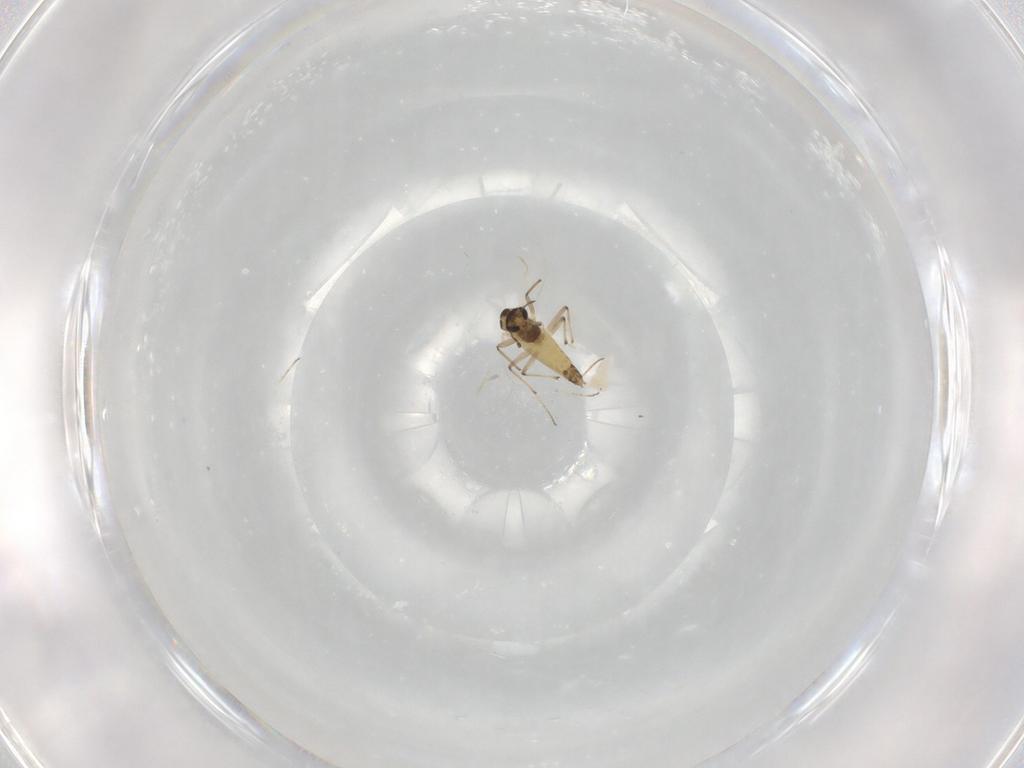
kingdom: Animalia
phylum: Arthropoda
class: Insecta
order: Diptera
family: Chironomidae
